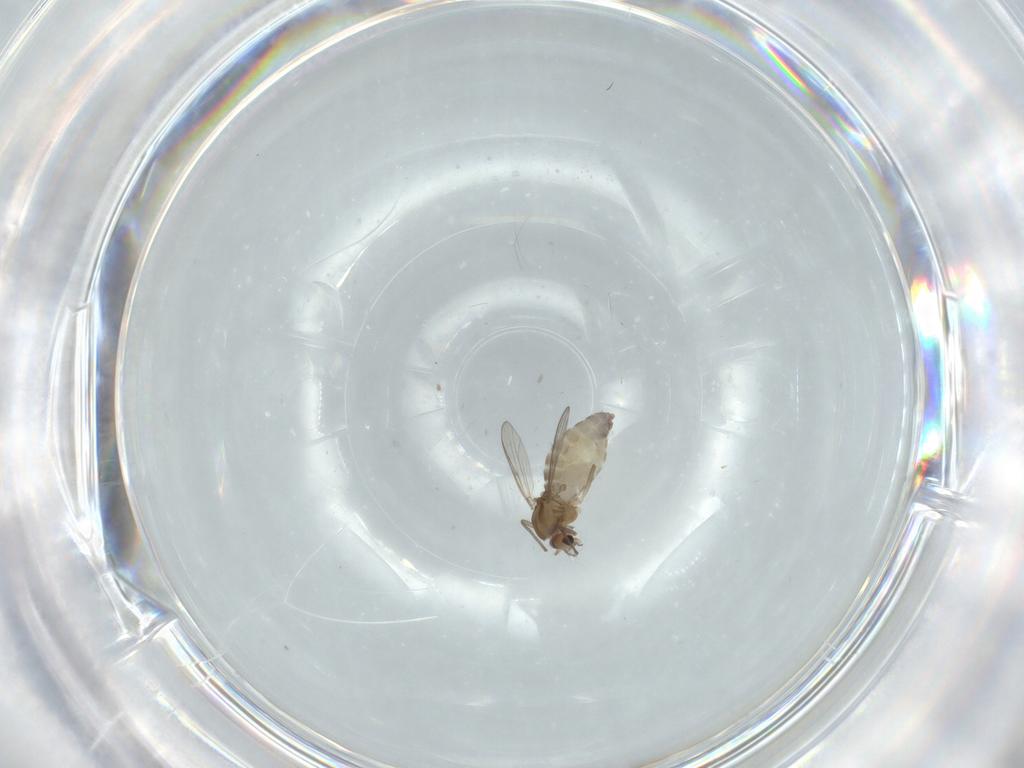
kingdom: Animalia
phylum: Arthropoda
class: Insecta
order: Diptera
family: Chironomidae
